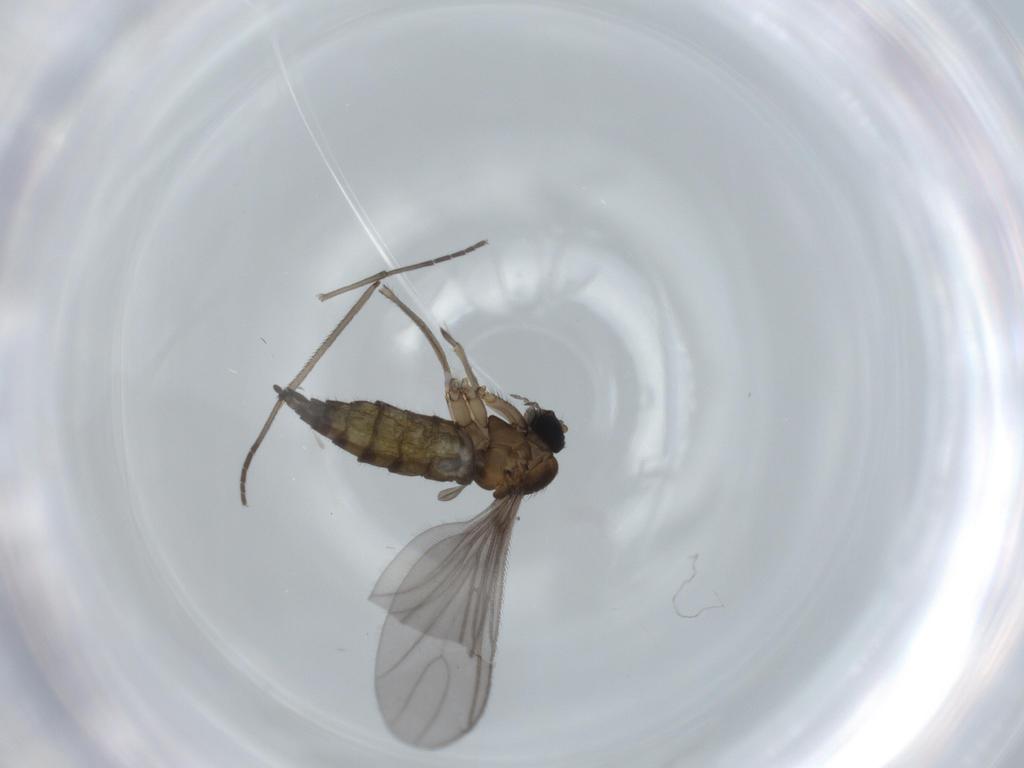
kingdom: Animalia
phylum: Arthropoda
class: Insecta
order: Diptera
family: Sciaridae
